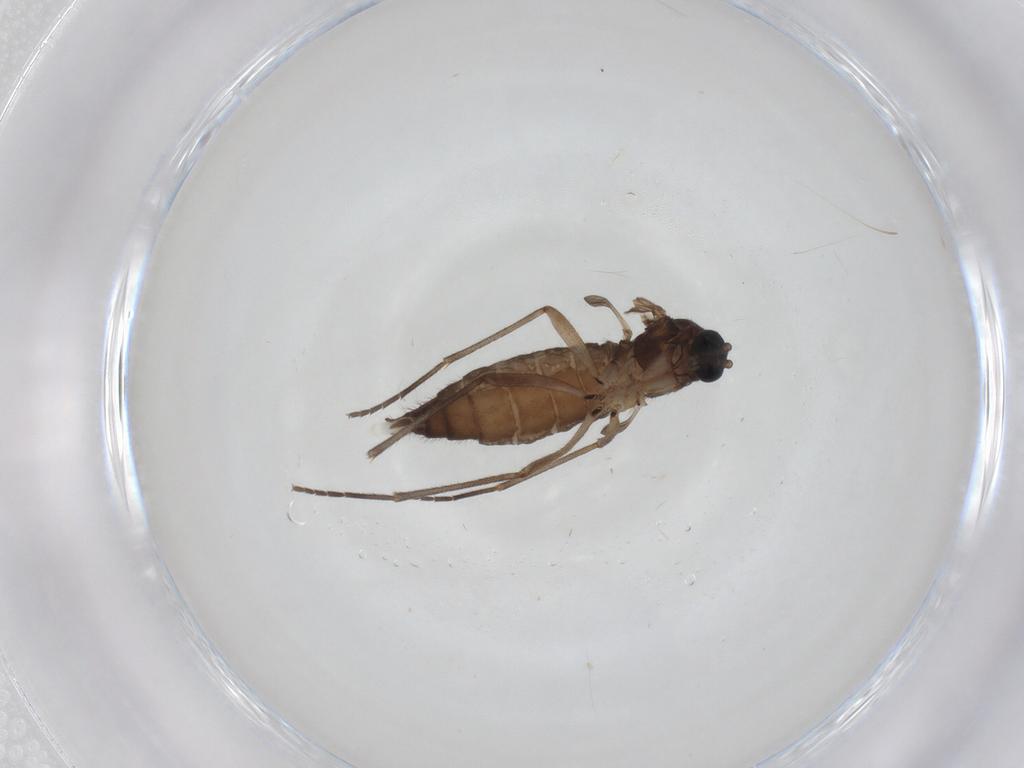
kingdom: Animalia
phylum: Arthropoda
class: Insecta
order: Diptera
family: Sciaridae
